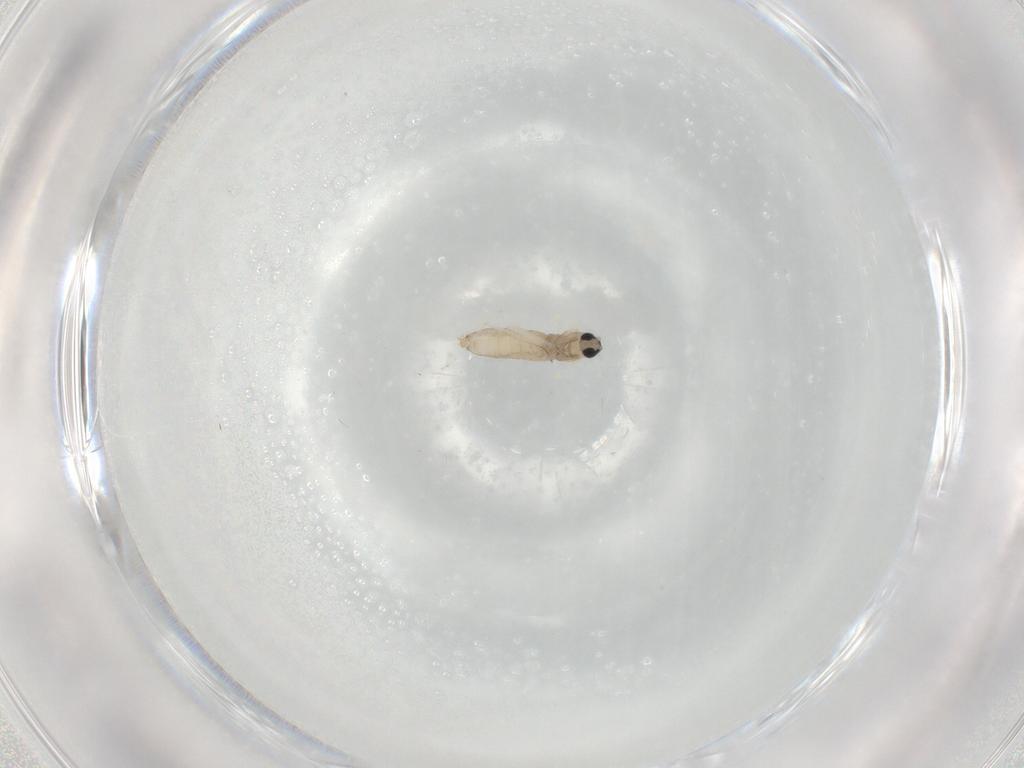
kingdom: Animalia
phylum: Arthropoda
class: Insecta
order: Diptera
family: Cecidomyiidae
